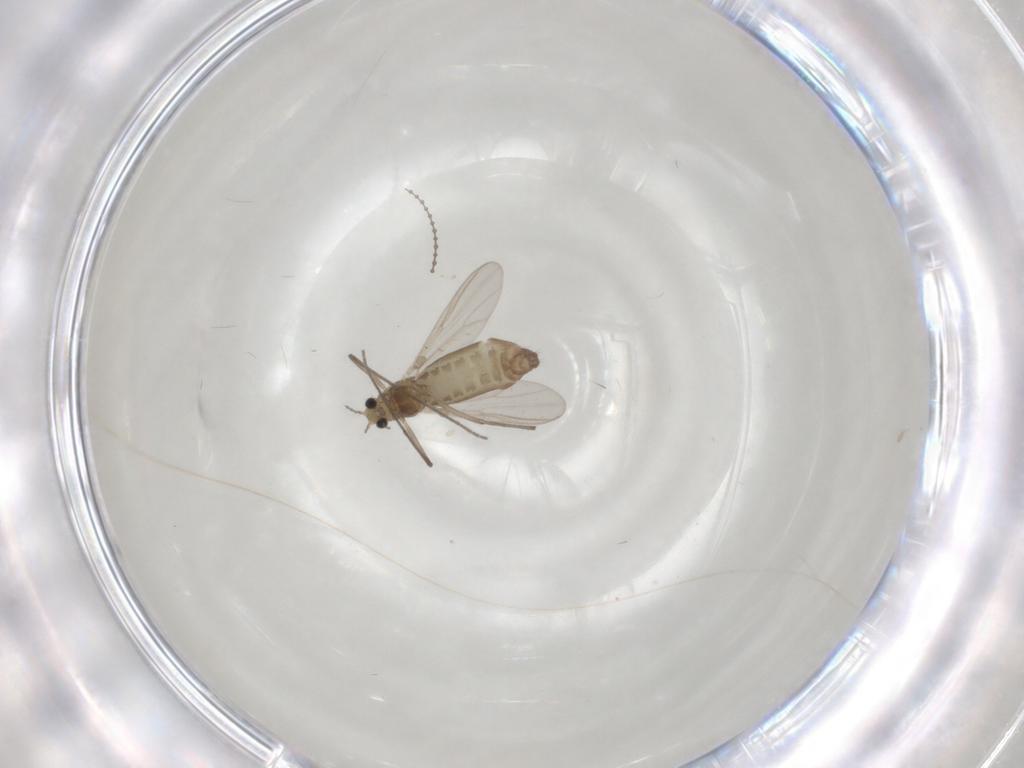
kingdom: Animalia
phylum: Arthropoda
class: Insecta
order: Diptera
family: Chironomidae
